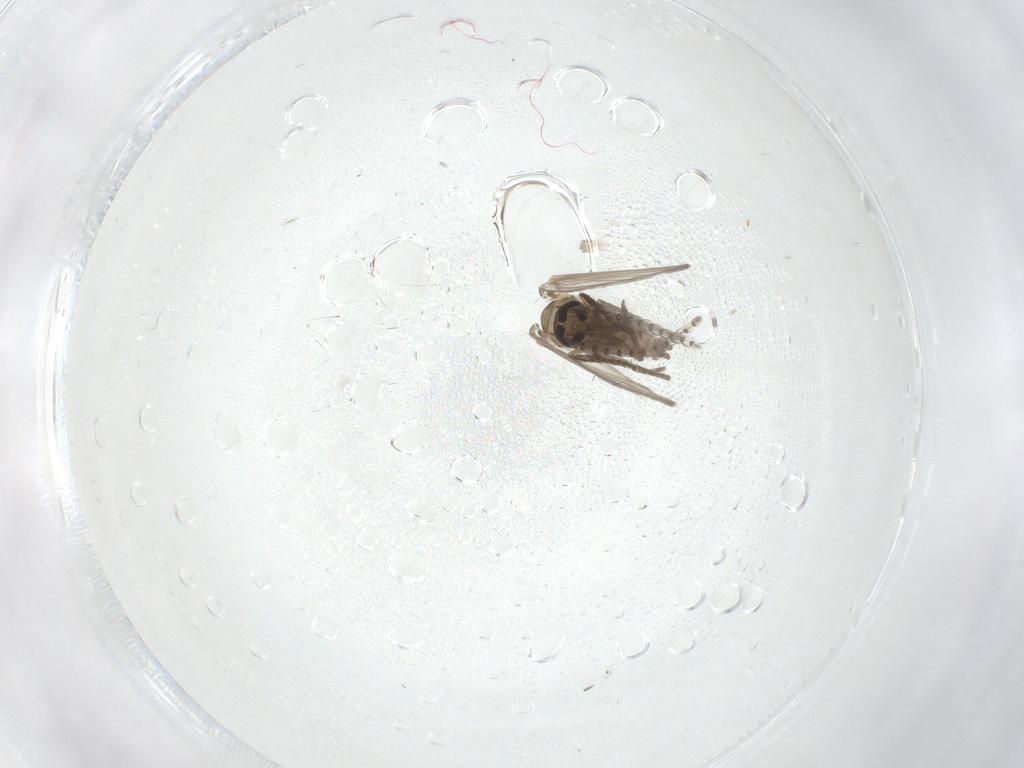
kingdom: Animalia
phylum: Arthropoda
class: Insecta
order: Diptera
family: Psychodidae
